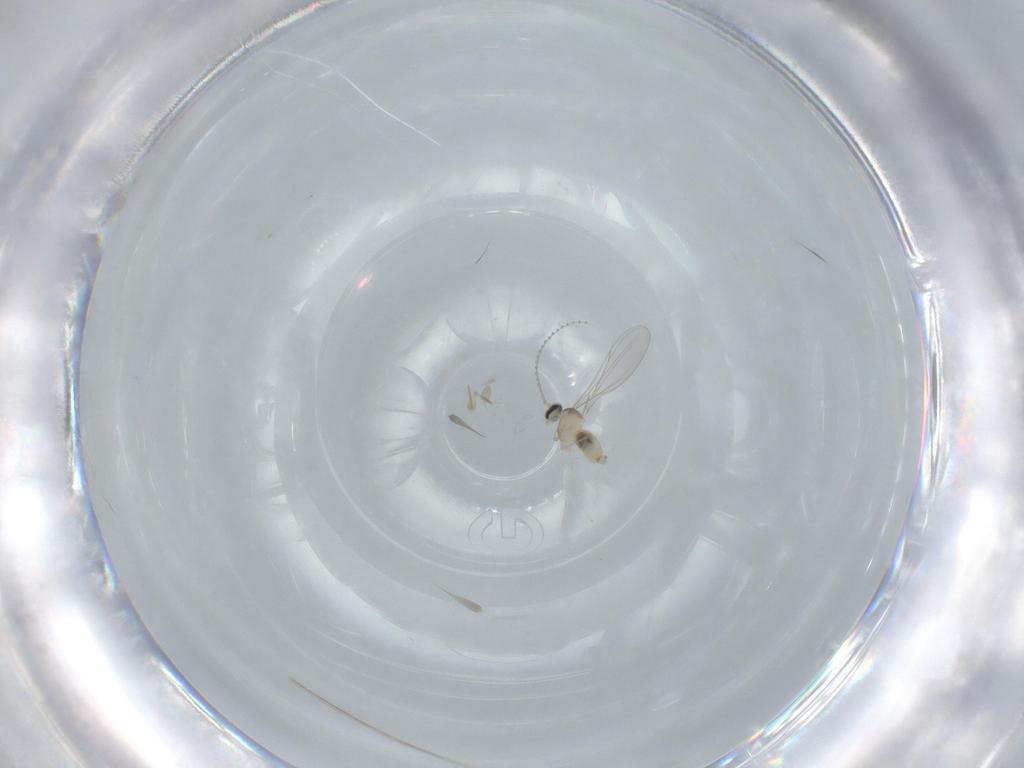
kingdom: Animalia
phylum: Arthropoda
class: Insecta
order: Diptera
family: Cecidomyiidae
